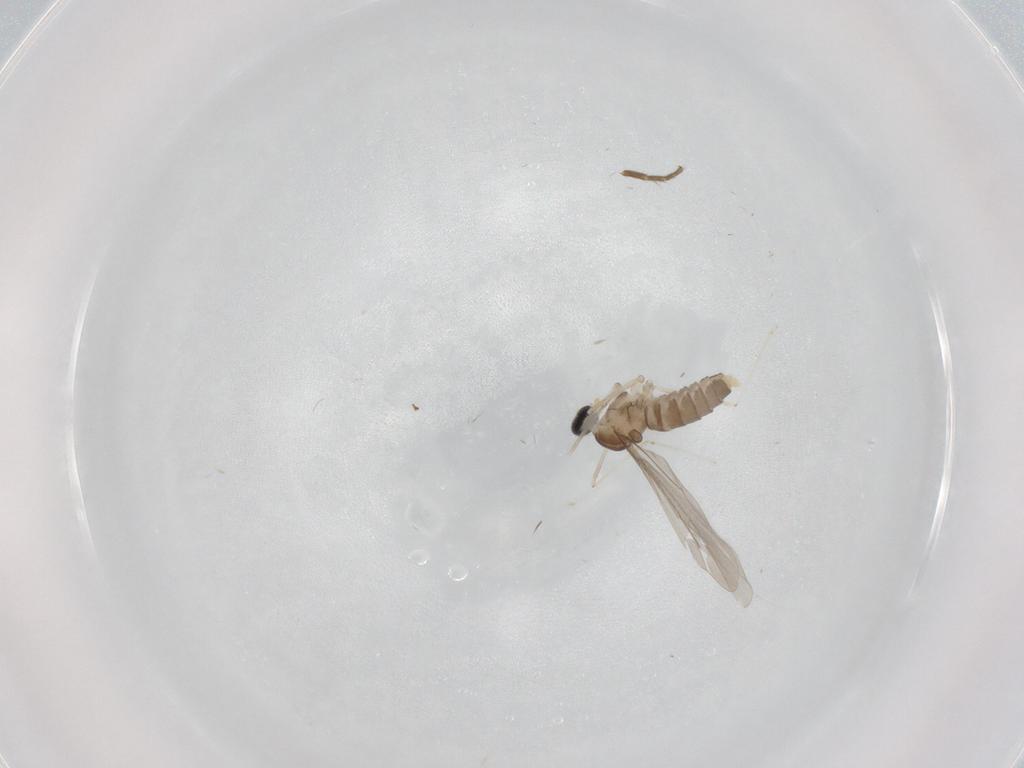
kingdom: Animalia
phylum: Arthropoda
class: Insecta
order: Diptera
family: Cecidomyiidae
